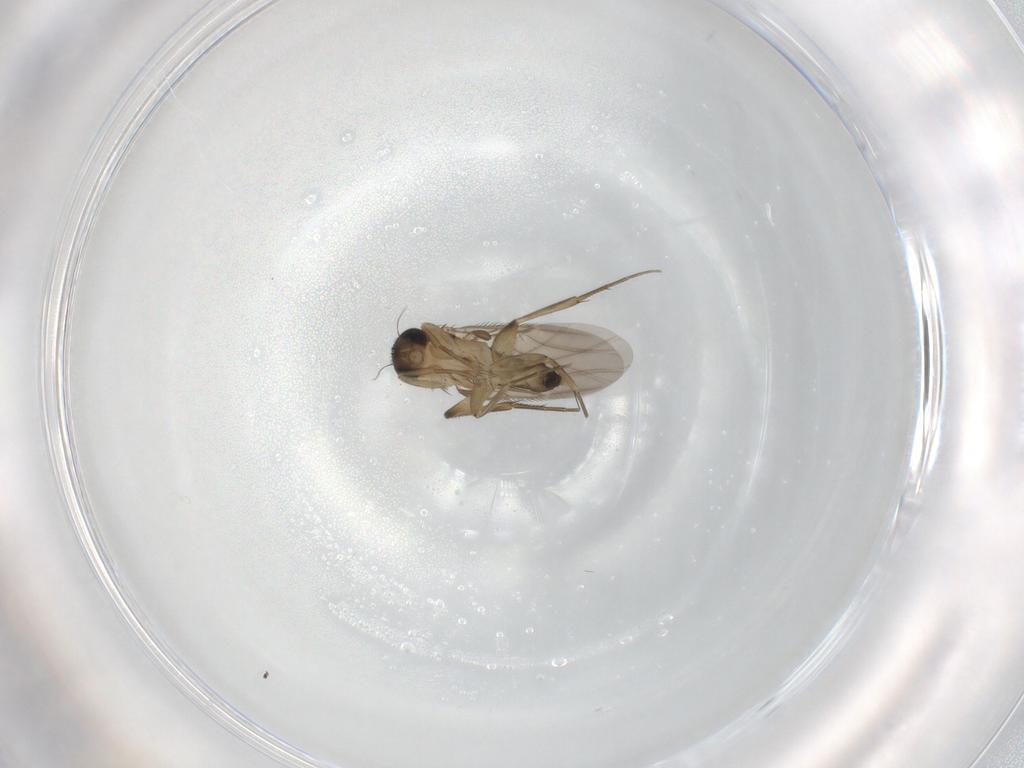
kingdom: Animalia
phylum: Arthropoda
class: Insecta
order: Diptera
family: Phoridae
